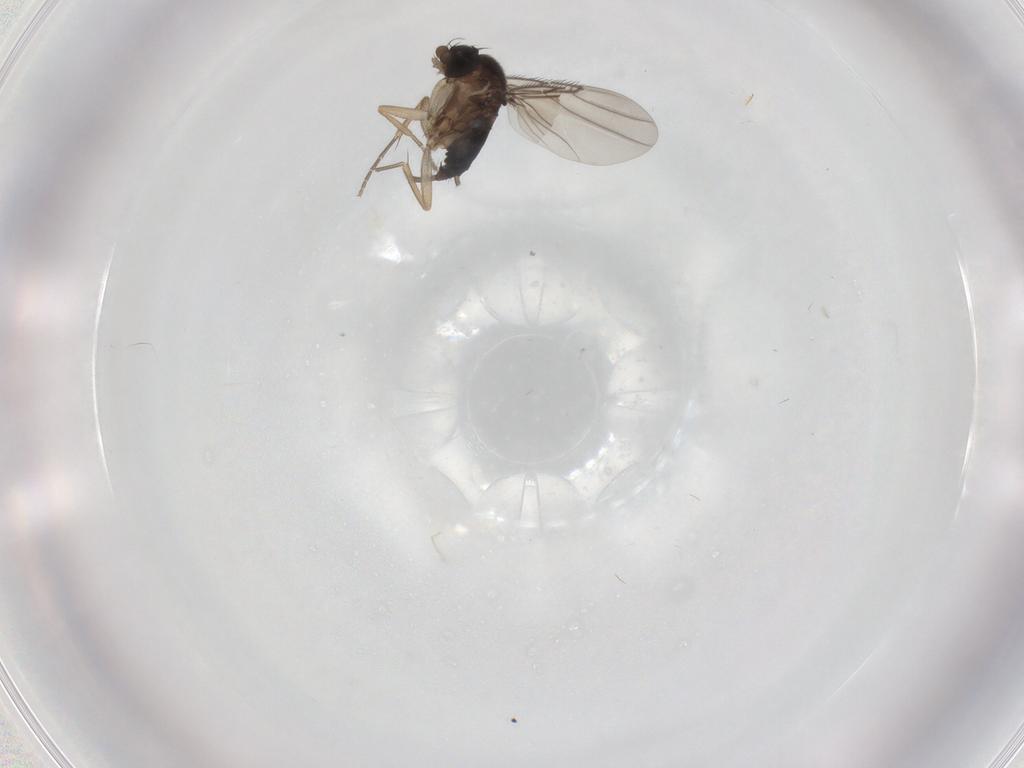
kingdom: Animalia
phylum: Arthropoda
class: Insecta
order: Diptera
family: Phoridae
